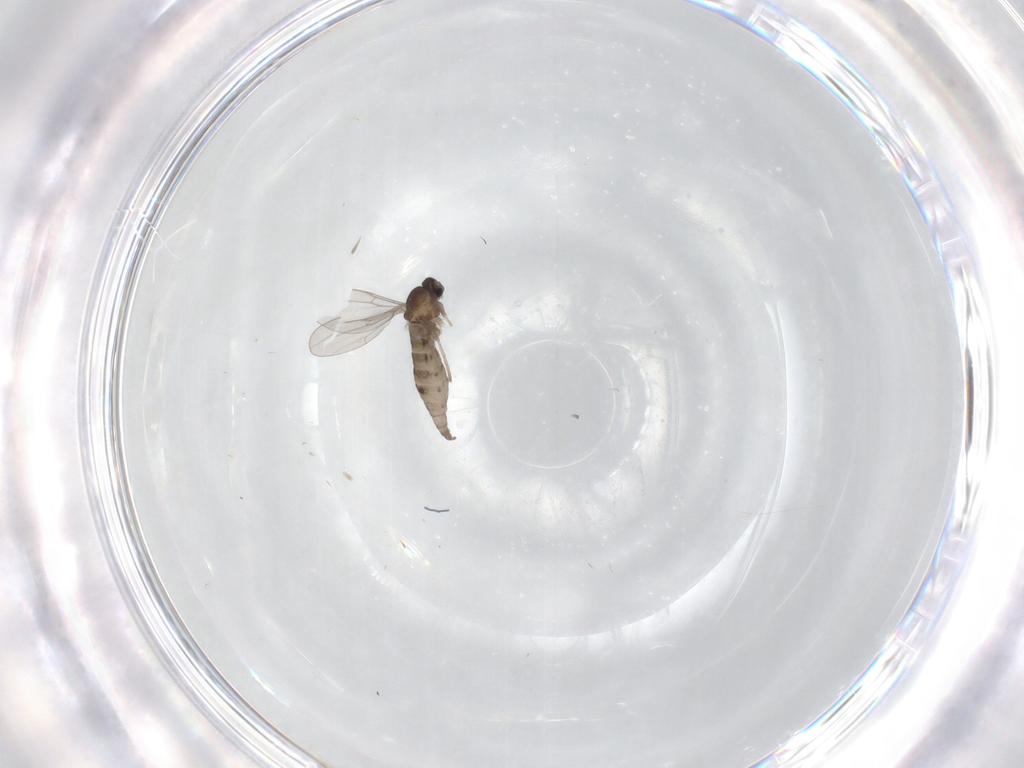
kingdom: Animalia
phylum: Arthropoda
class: Insecta
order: Diptera
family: Cecidomyiidae
